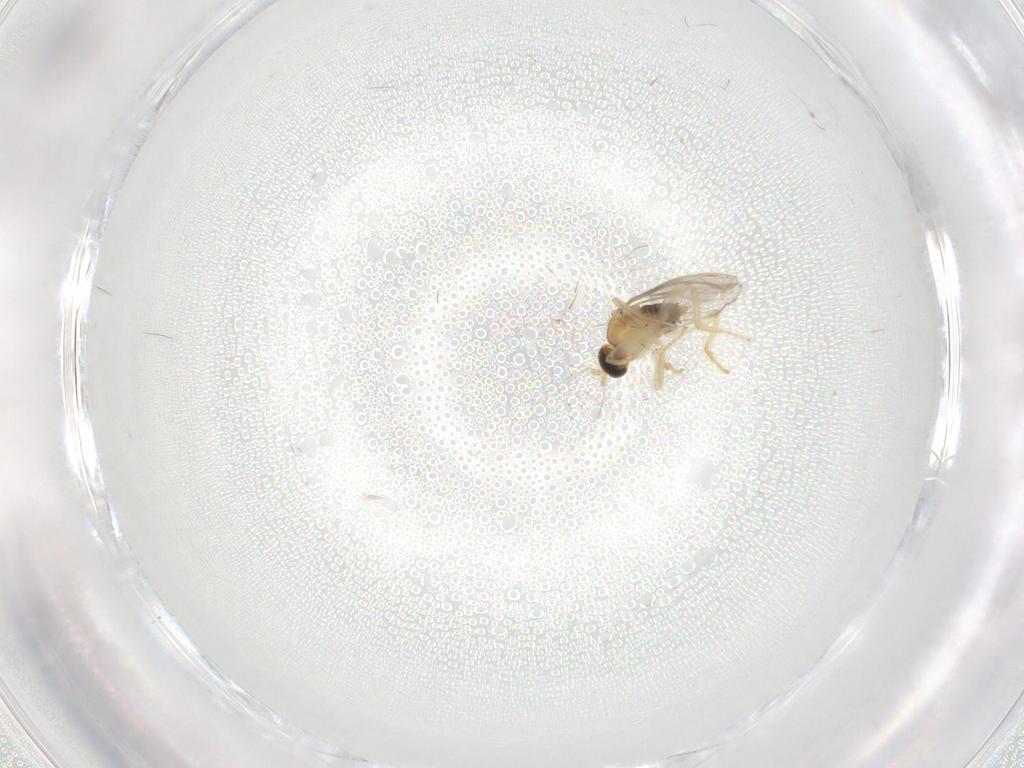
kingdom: Animalia
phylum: Arthropoda
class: Insecta
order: Diptera
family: Hybotidae
